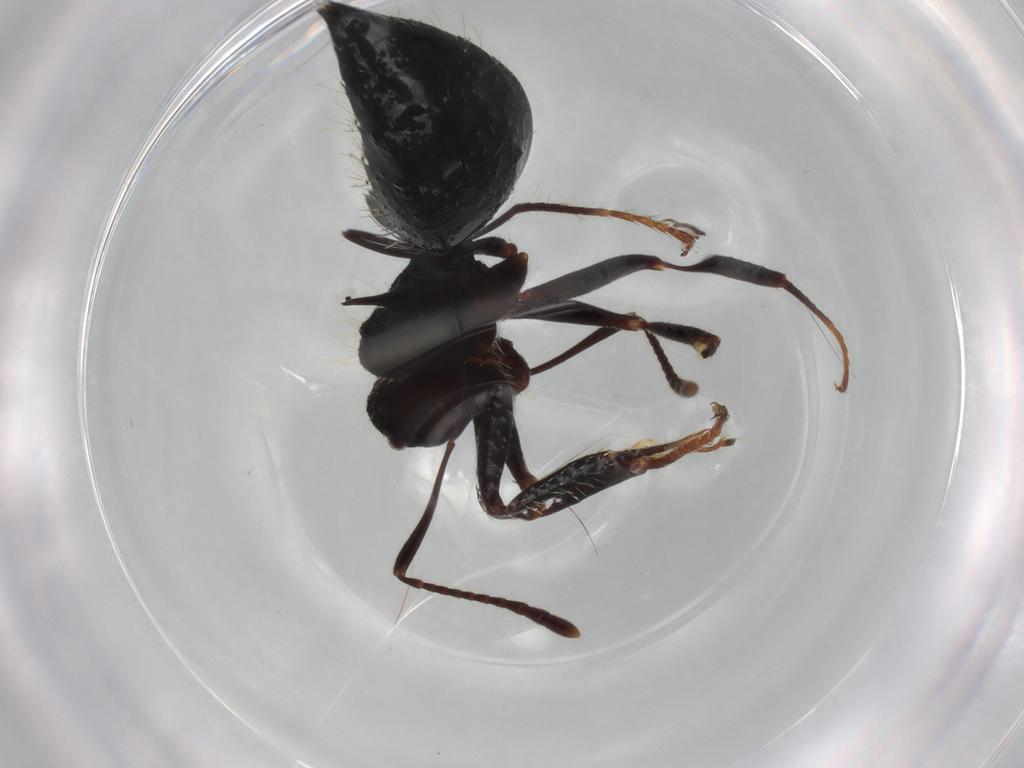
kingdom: Animalia
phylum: Arthropoda
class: Insecta
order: Hymenoptera
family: Formicidae
